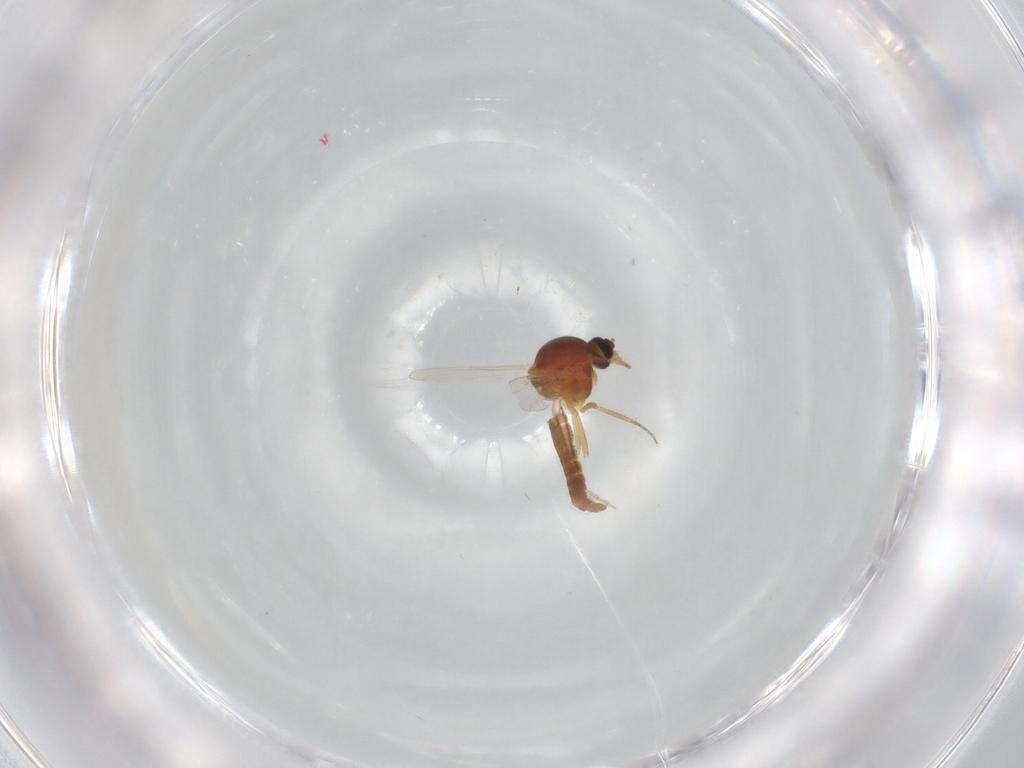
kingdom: Animalia
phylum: Arthropoda
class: Insecta
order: Diptera
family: Ceratopogonidae
